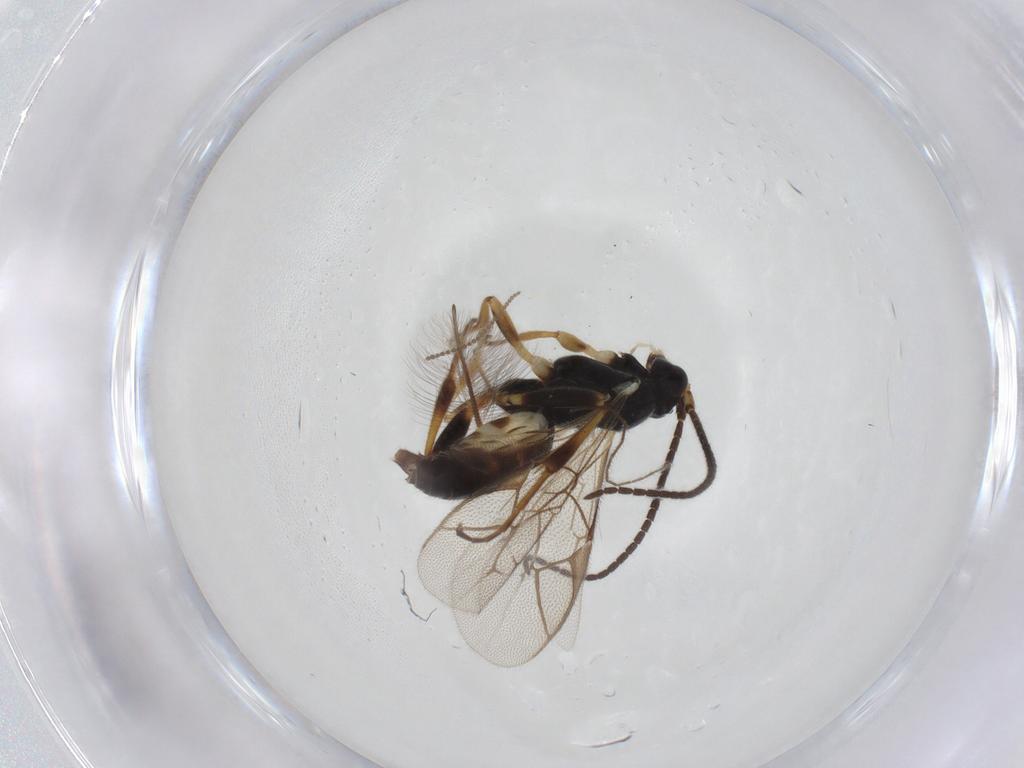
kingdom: Animalia
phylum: Arthropoda
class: Insecta
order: Hymenoptera
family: Ichneumonidae
